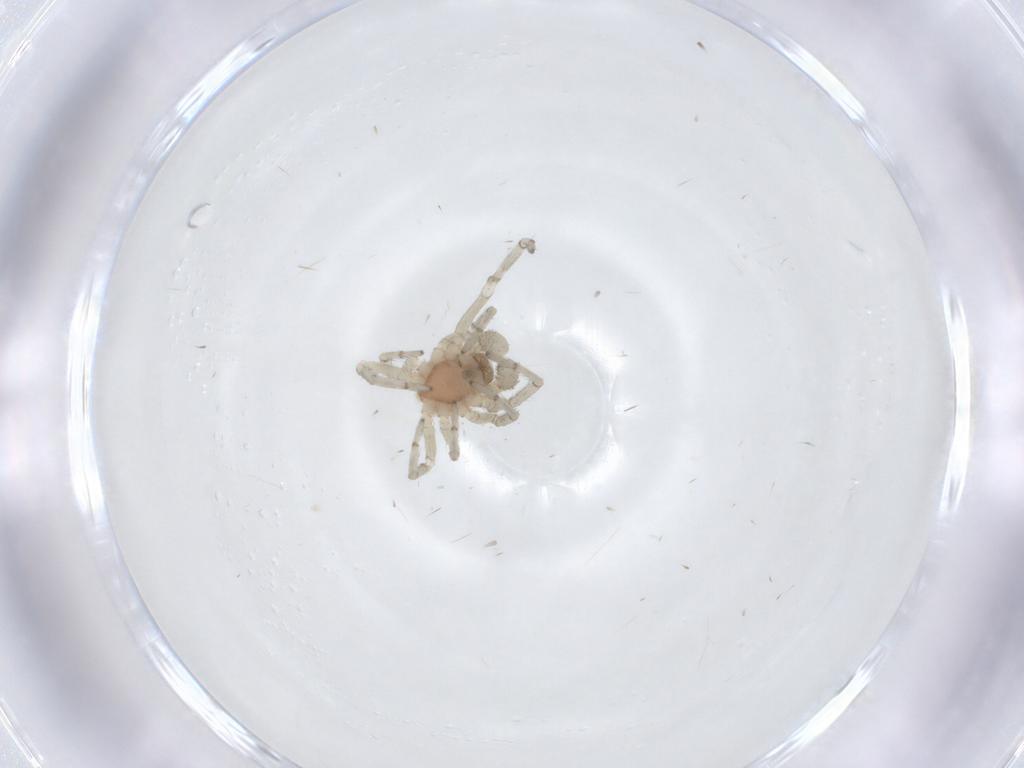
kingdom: Animalia
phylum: Arthropoda
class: Arachnida
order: Araneae
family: Dictynidae
